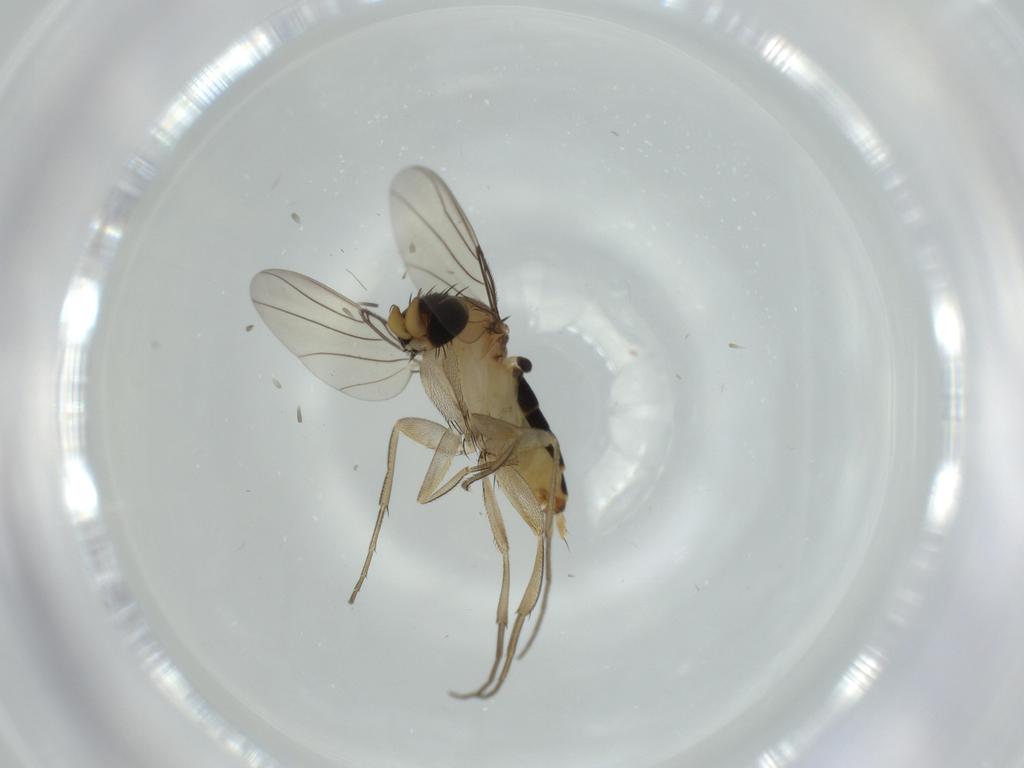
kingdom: Animalia
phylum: Arthropoda
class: Insecta
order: Diptera
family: Phoridae
